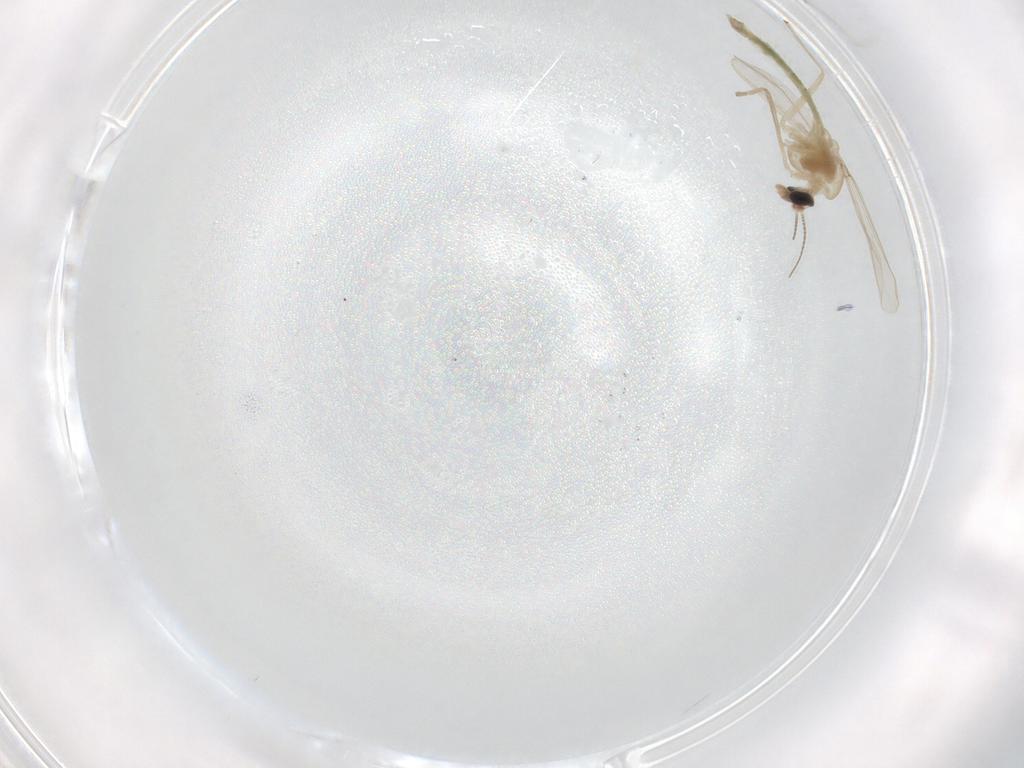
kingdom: Animalia
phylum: Arthropoda
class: Insecta
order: Diptera
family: Chironomidae
